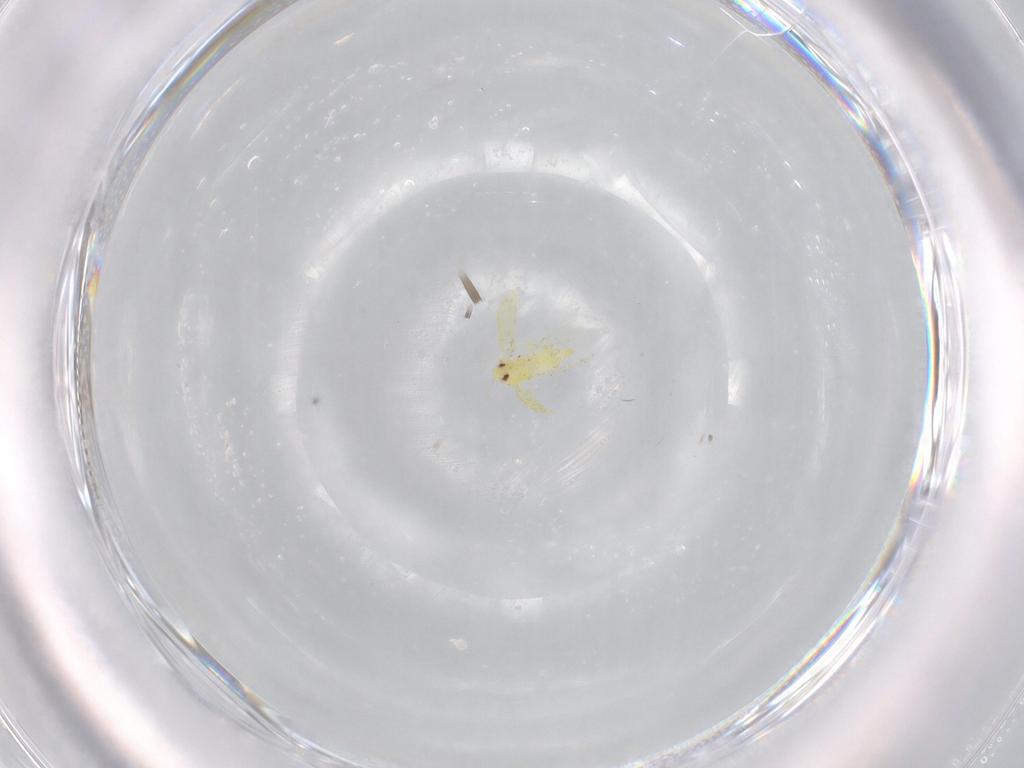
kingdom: Animalia
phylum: Arthropoda
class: Insecta
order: Hemiptera
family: Aleyrodidae
